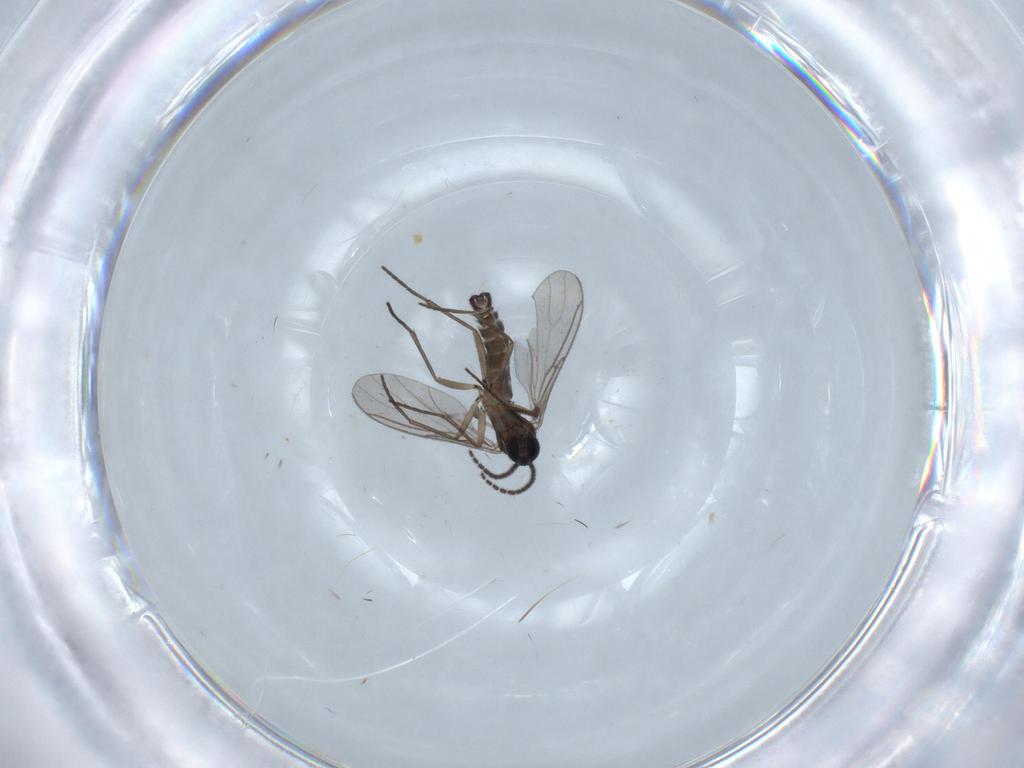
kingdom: Animalia
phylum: Arthropoda
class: Insecta
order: Diptera
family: Sciaridae
